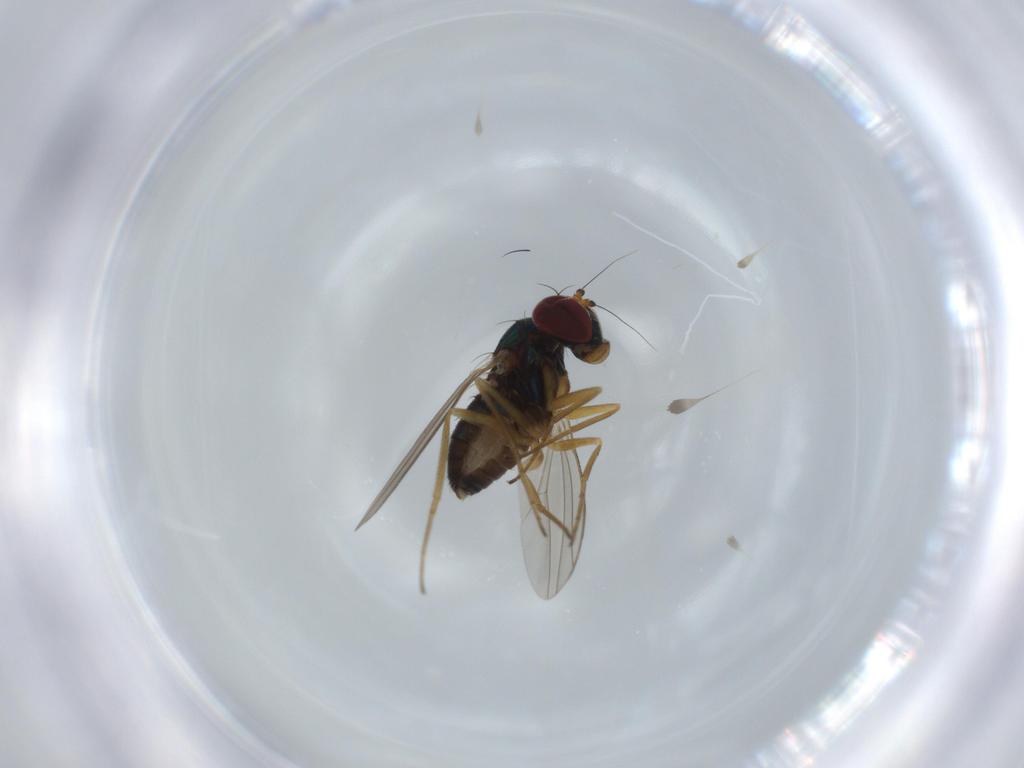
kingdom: Animalia
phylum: Arthropoda
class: Insecta
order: Diptera
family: Dolichopodidae
